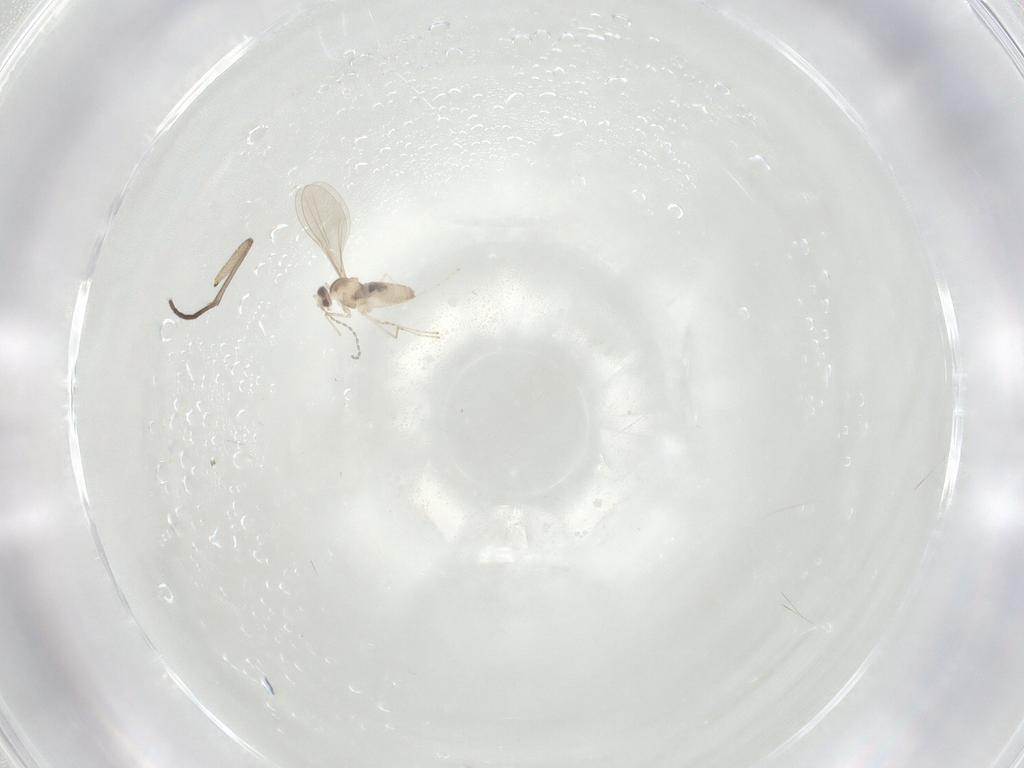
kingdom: Animalia
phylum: Arthropoda
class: Insecta
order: Diptera
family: Cecidomyiidae
